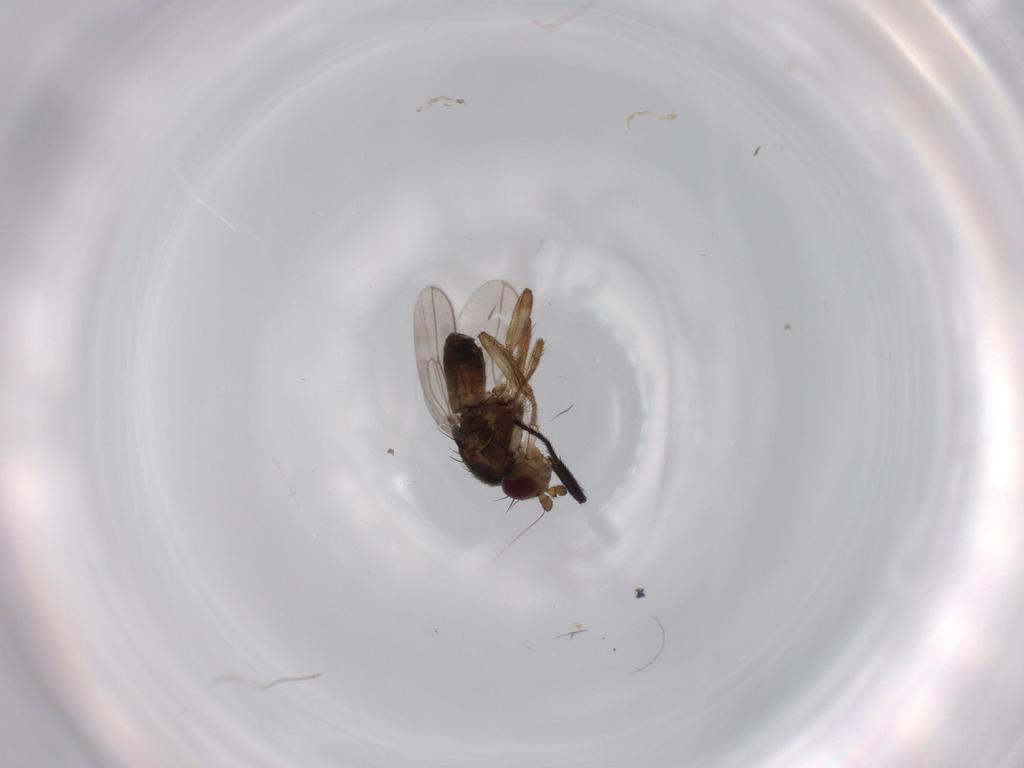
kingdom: Animalia
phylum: Arthropoda
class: Insecta
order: Diptera
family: Sphaeroceridae
